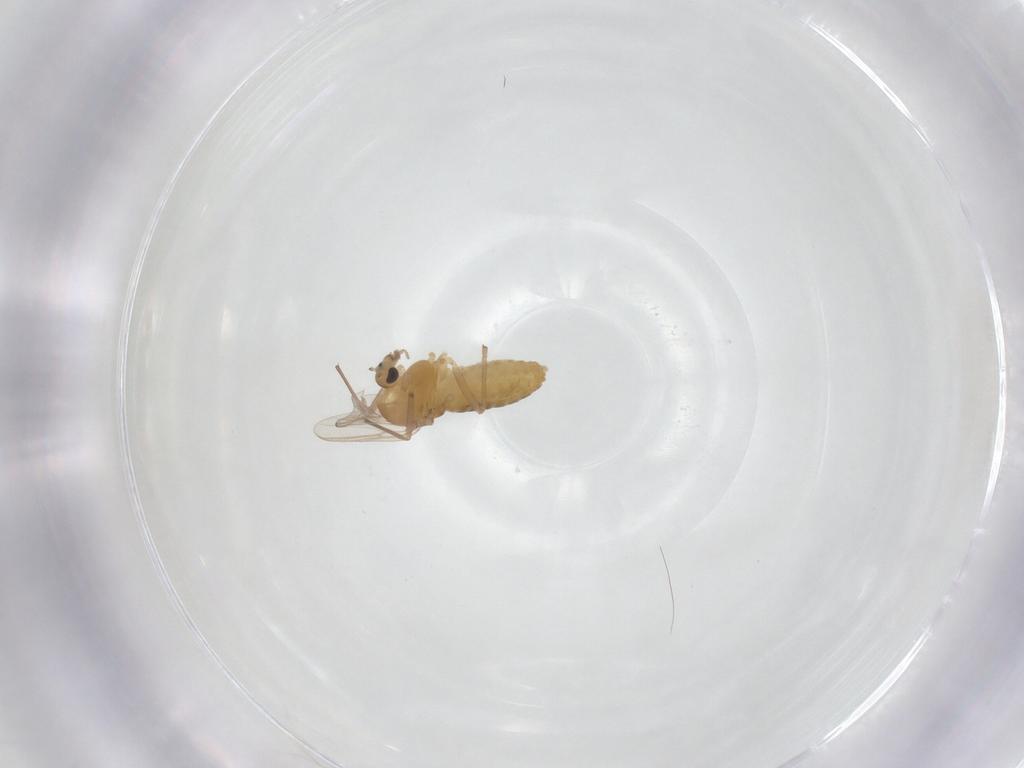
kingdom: Animalia
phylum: Arthropoda
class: Insecta
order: Diptera
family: Chironomidae
